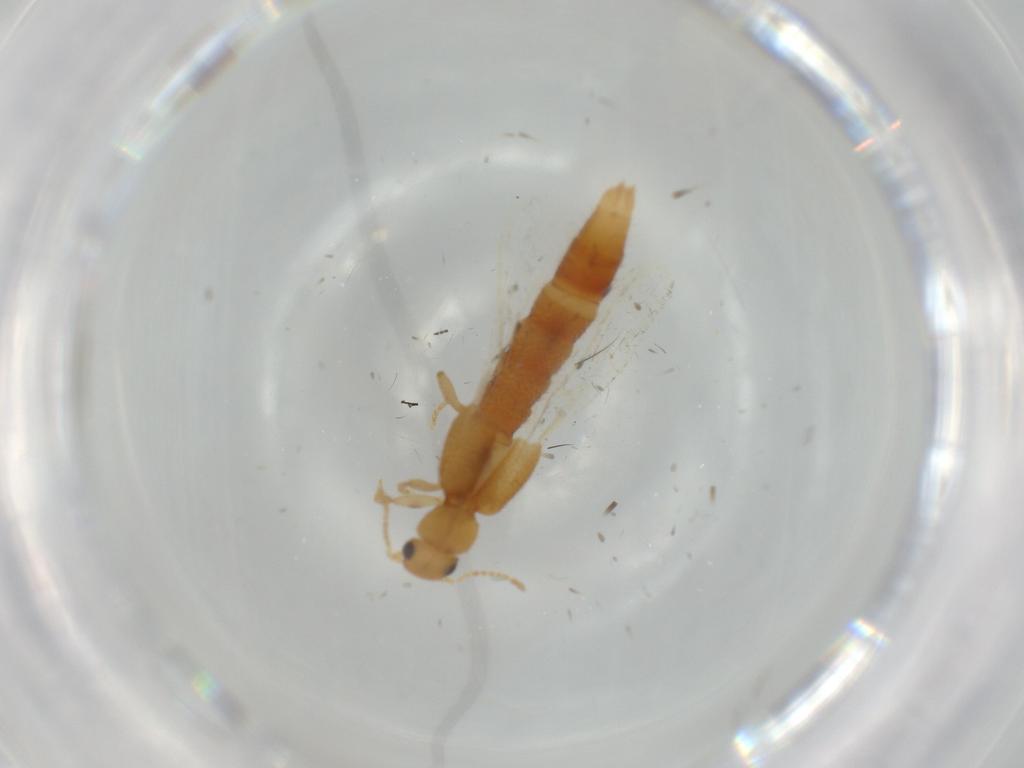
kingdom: Animalia
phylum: Arthropoda
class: Insecta
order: Coleoptera
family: Staphylinidae
